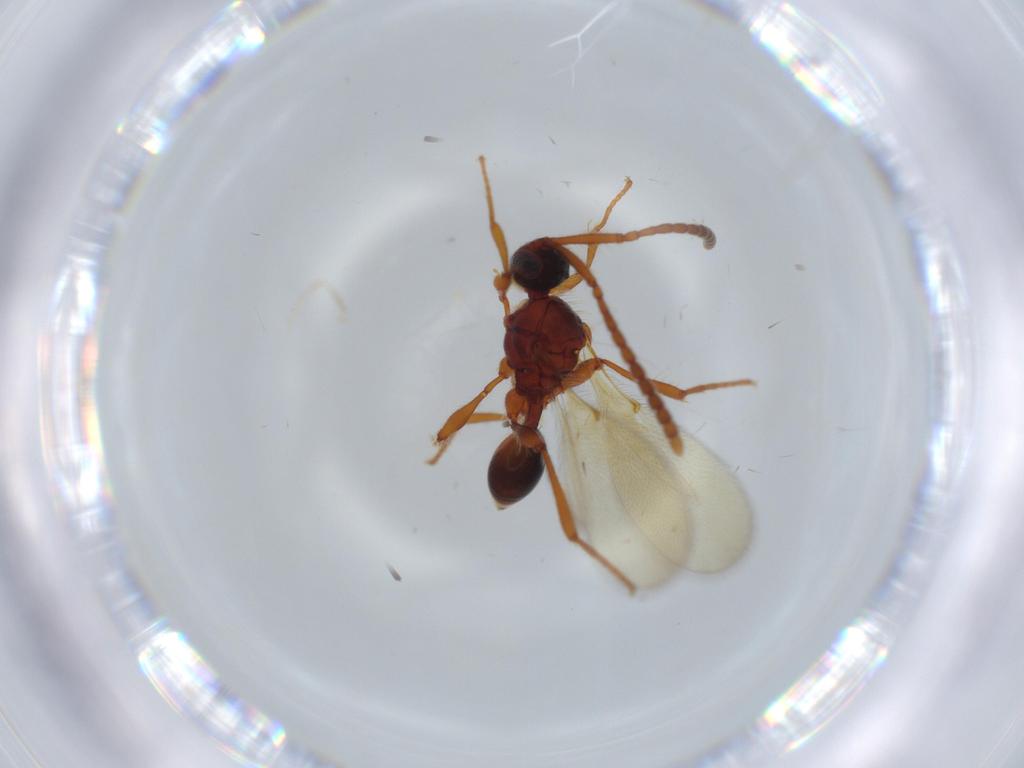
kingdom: Animalia
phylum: Arthropoda
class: Insecta
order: Hymenoptera
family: Diapriidae
